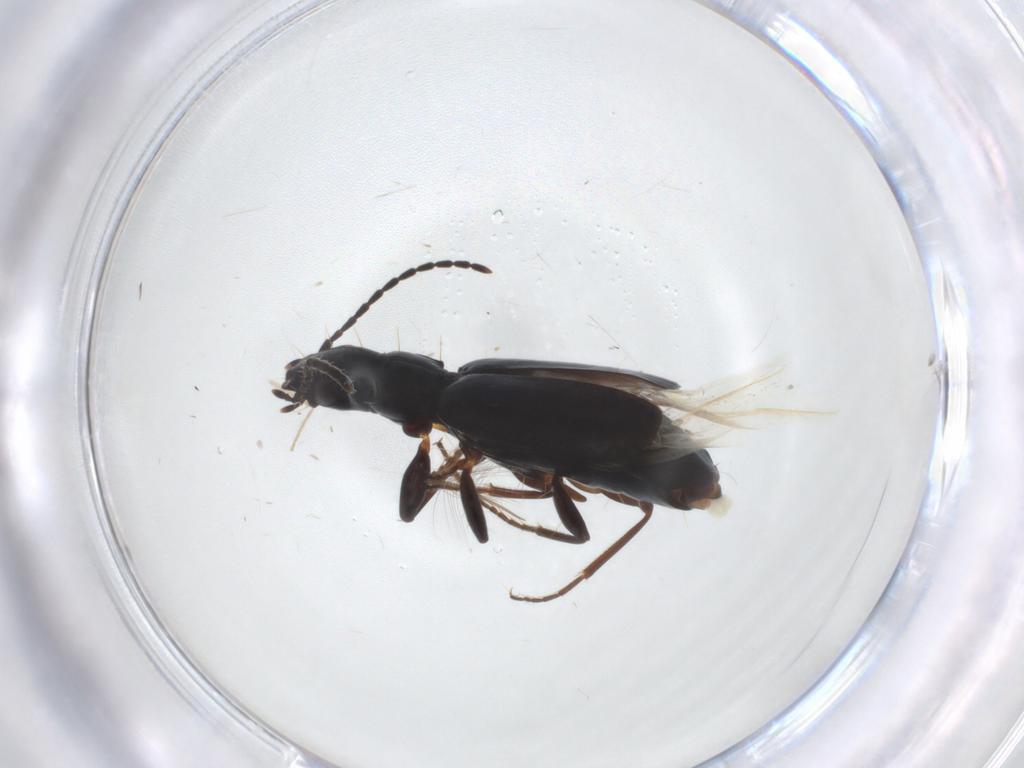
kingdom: Animalia
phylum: Arthropoda
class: Insecta
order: Coleoptera
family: Carabidae
